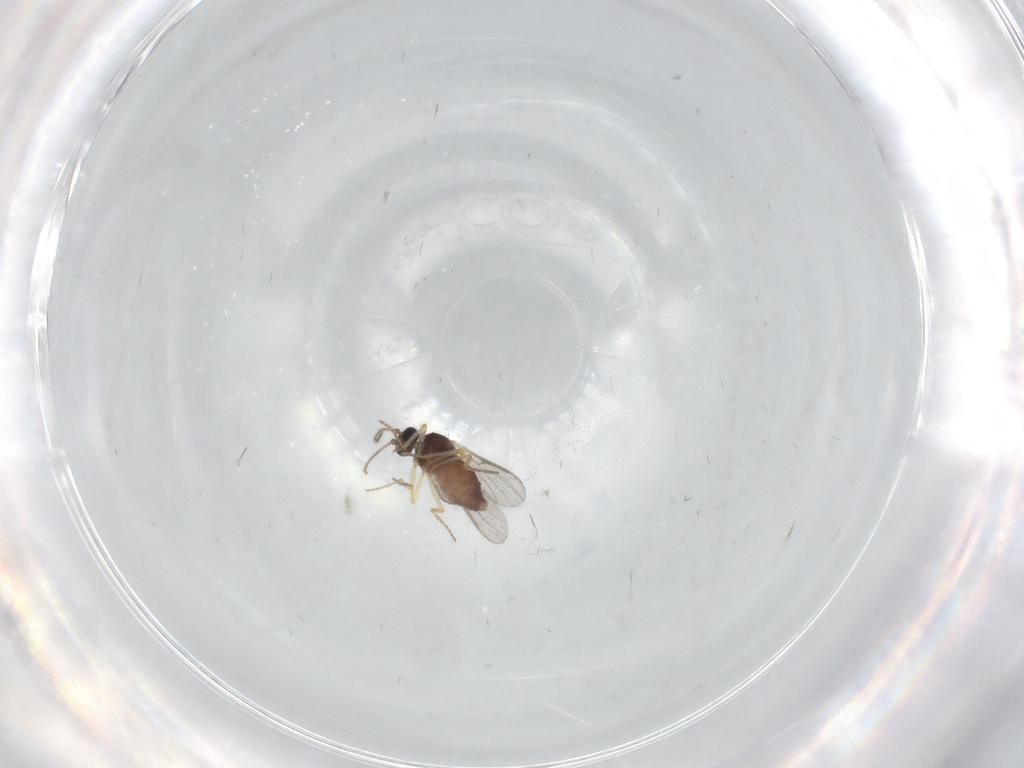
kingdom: Animalia
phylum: Arthropoda
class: Insecta
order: Diptera
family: Ceratopogonidae
